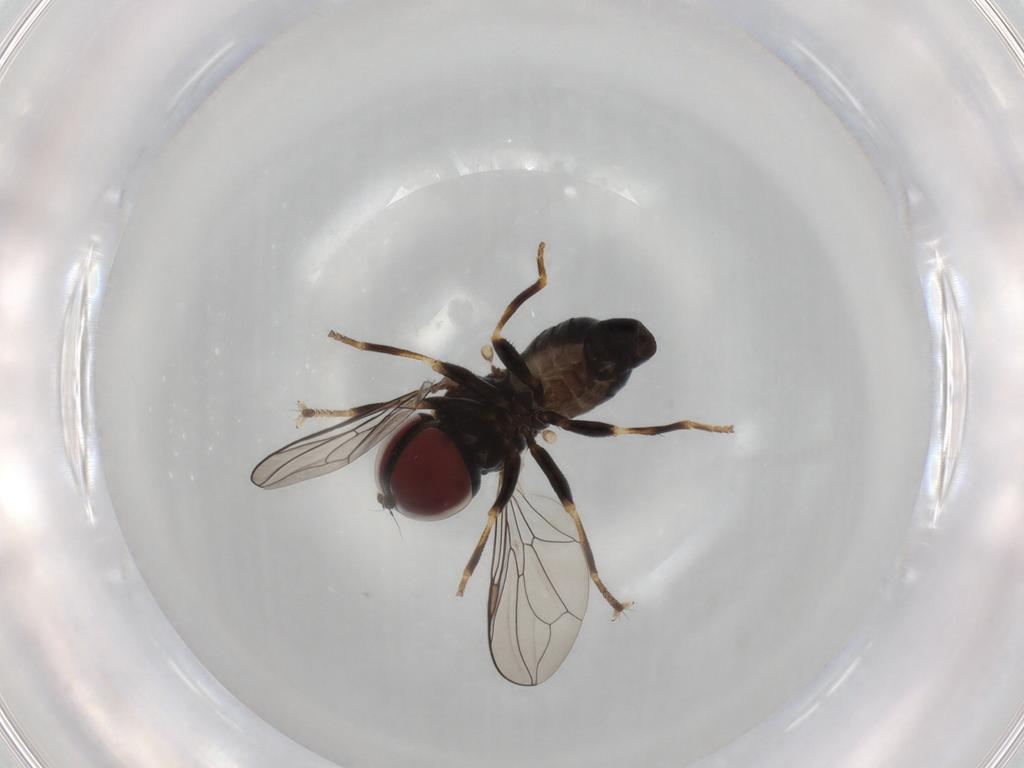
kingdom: Animalia
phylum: Arthropoda
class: Insecta
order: Diptera
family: Pipunculidae
